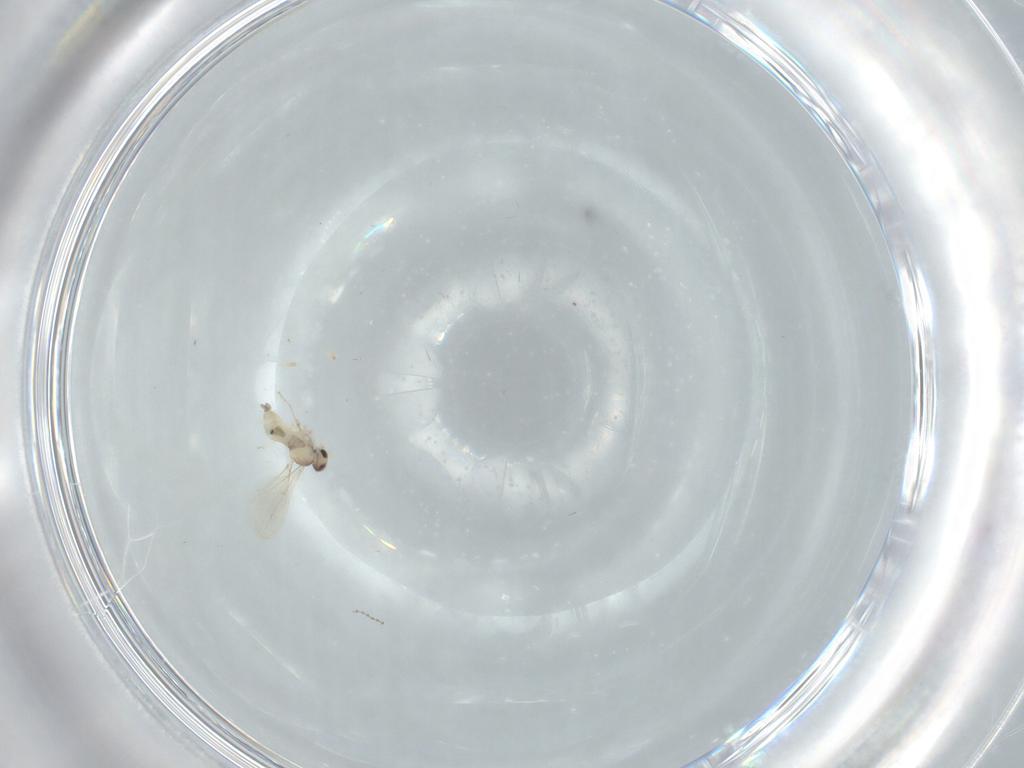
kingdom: Animalia
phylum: Arthropoda
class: Insecta
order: Diptera
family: Cecidomyiidae
